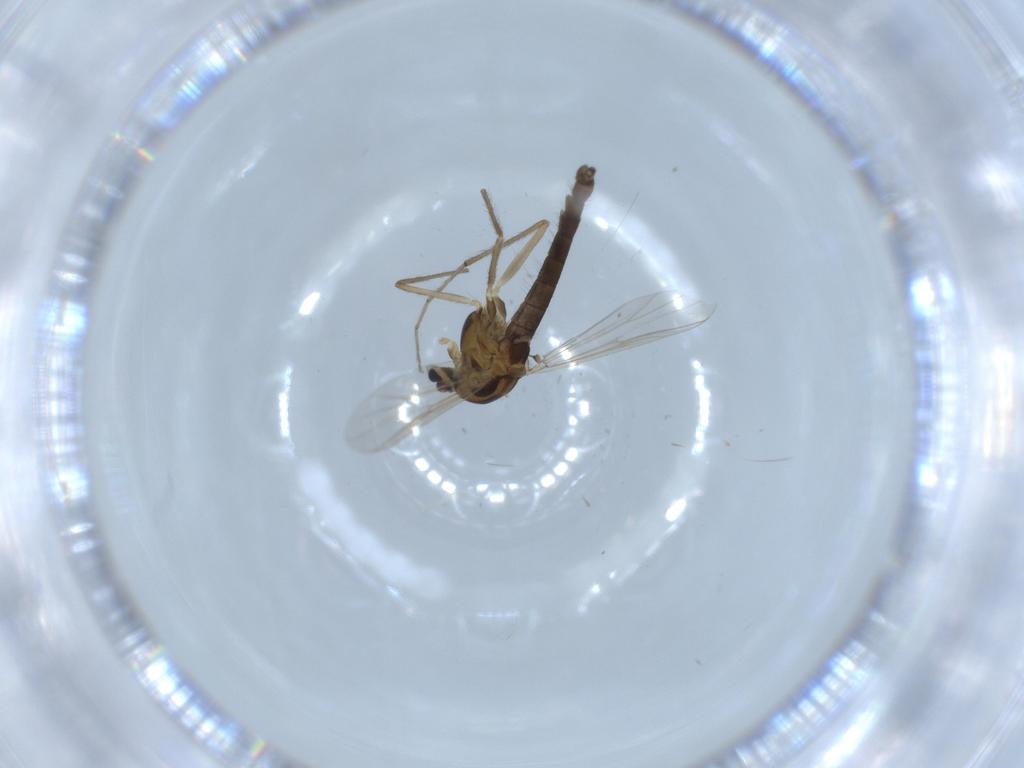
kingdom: Animalia
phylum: Arthropoda
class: Insecta
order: Diptera
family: Chironomidae
